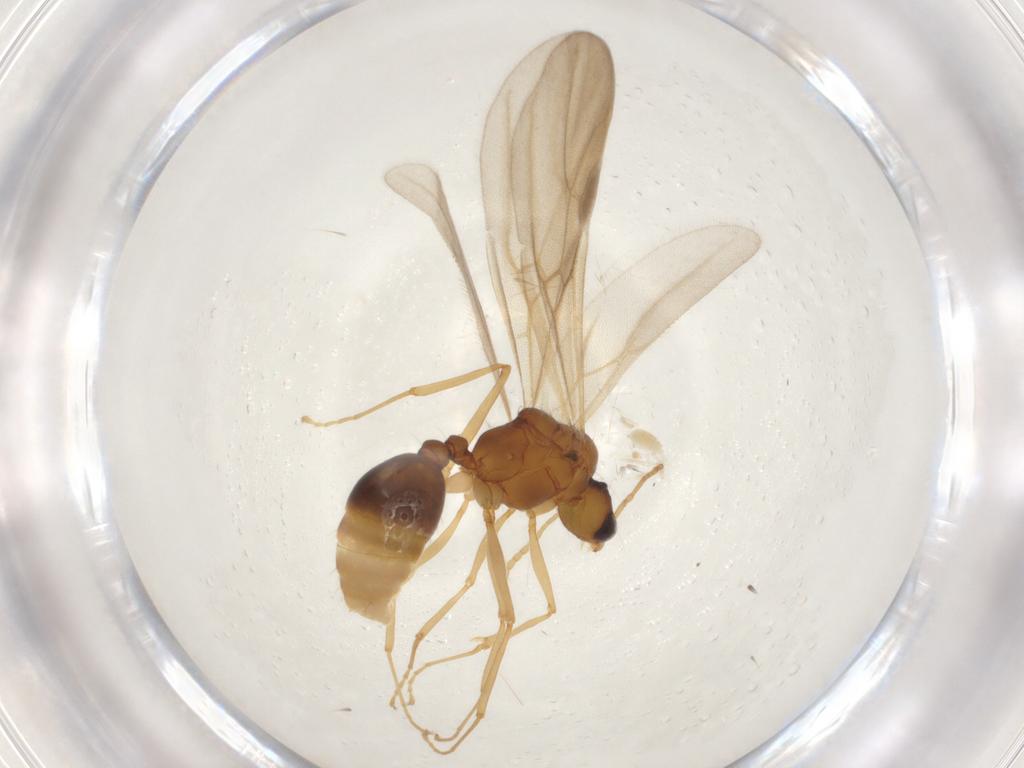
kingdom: Animalia
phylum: Arthropoda
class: Insecta
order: Hymenoptera
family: Formicidae
